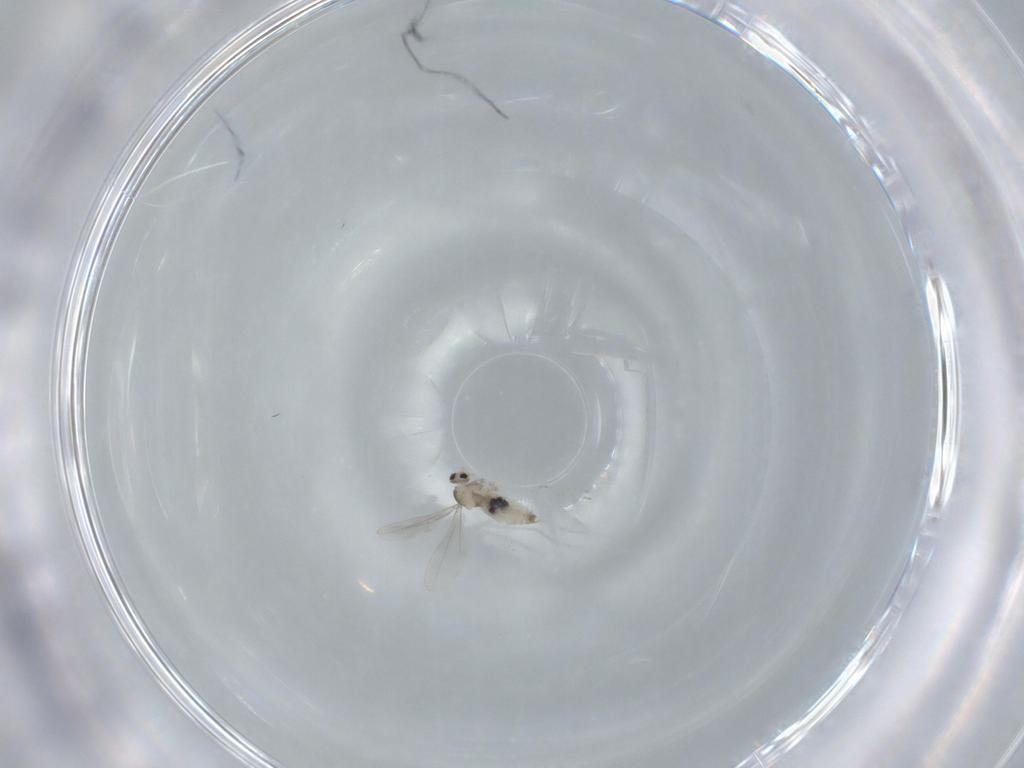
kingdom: Animalia
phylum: Arthropoda
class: Insecta
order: Diptera
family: Cecidomyiidae
